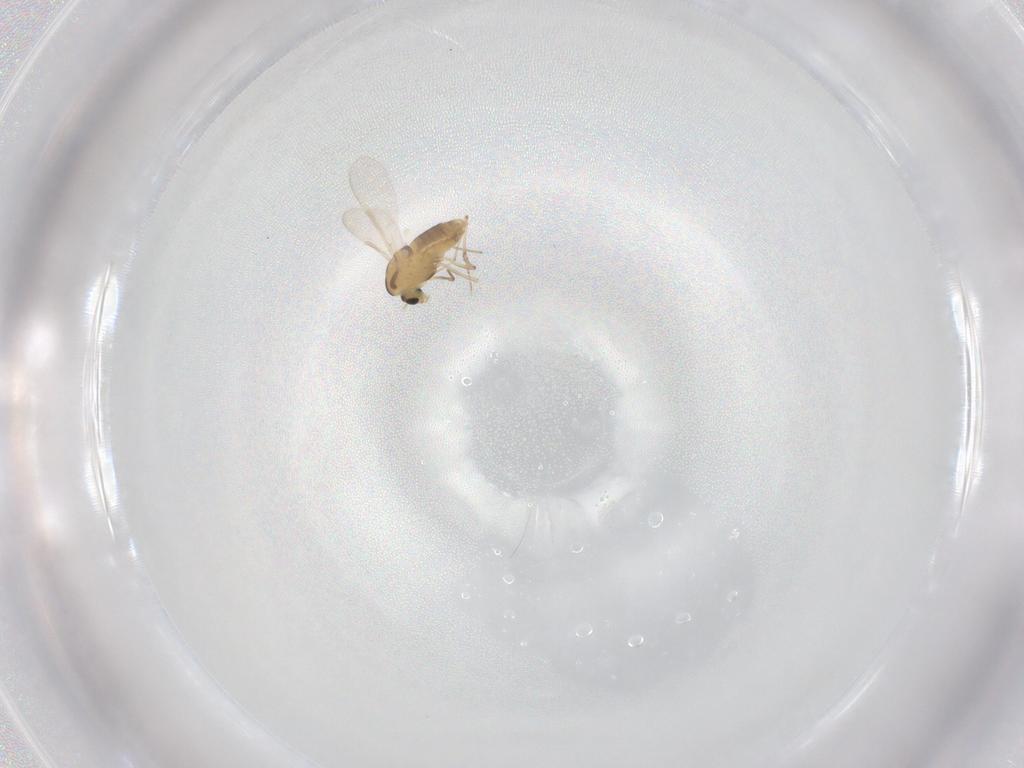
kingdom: Animalia
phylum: Arthropoda
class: Insecta
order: Diptera
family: Chironomidae
